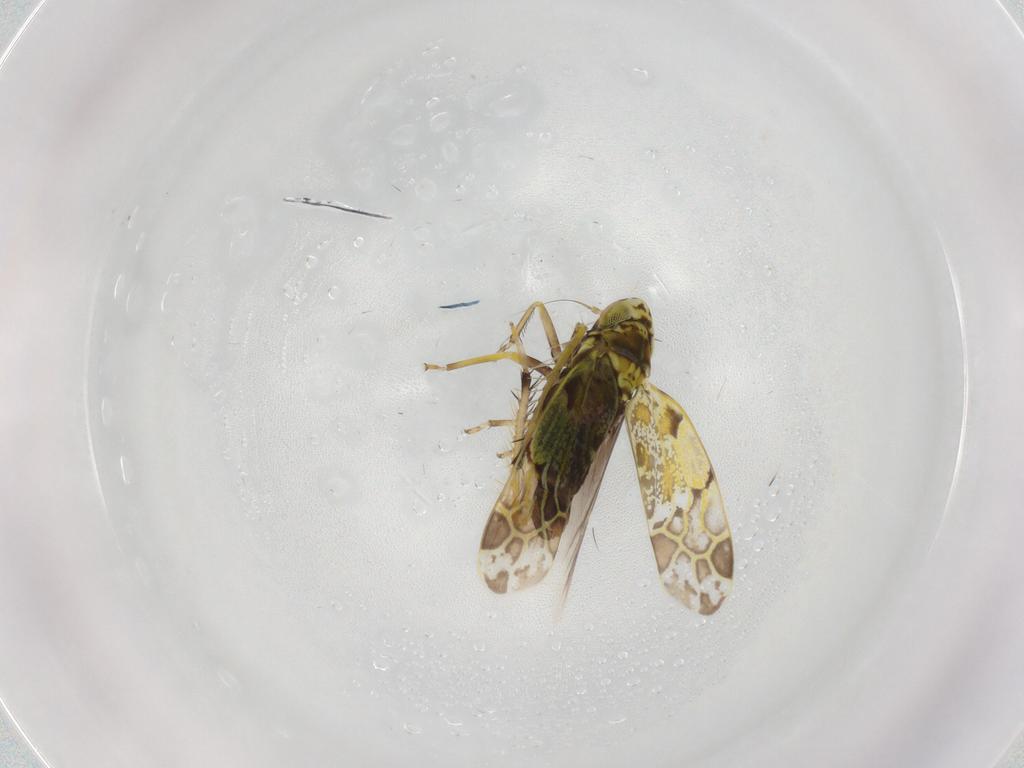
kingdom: Animalia
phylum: Arthropoda
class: Insecta
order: Hemiptera
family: Cicadellidae
